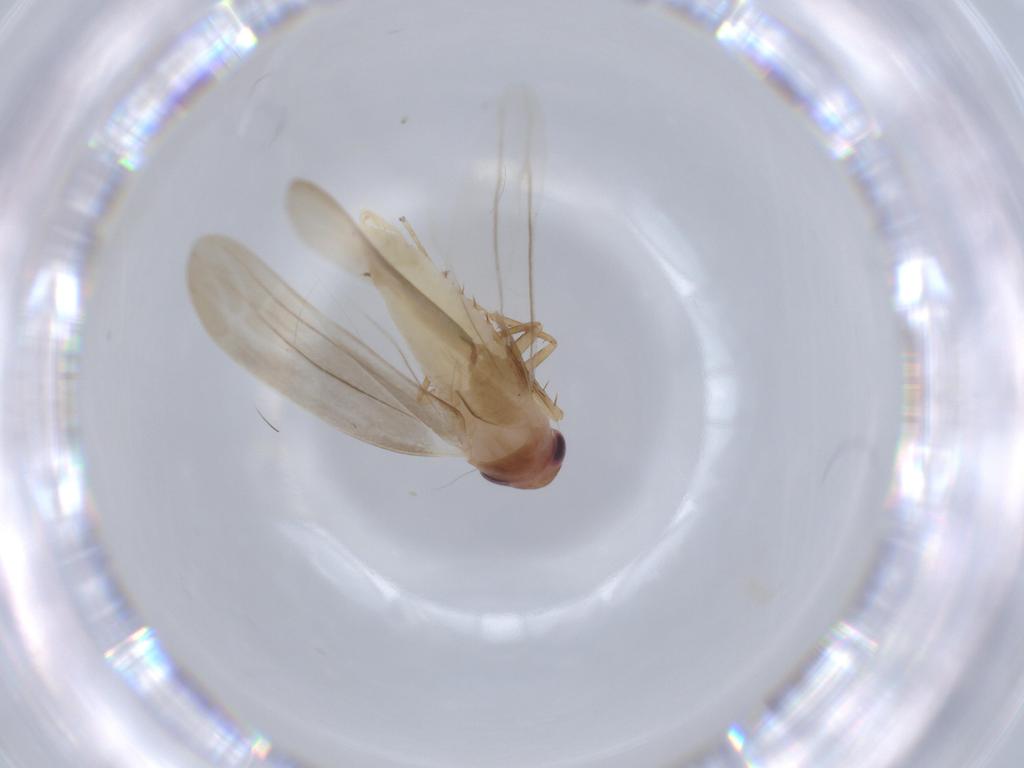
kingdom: Animalia
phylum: Arthropoda
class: Insecta
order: Hemiptera
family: Cicadellidae
